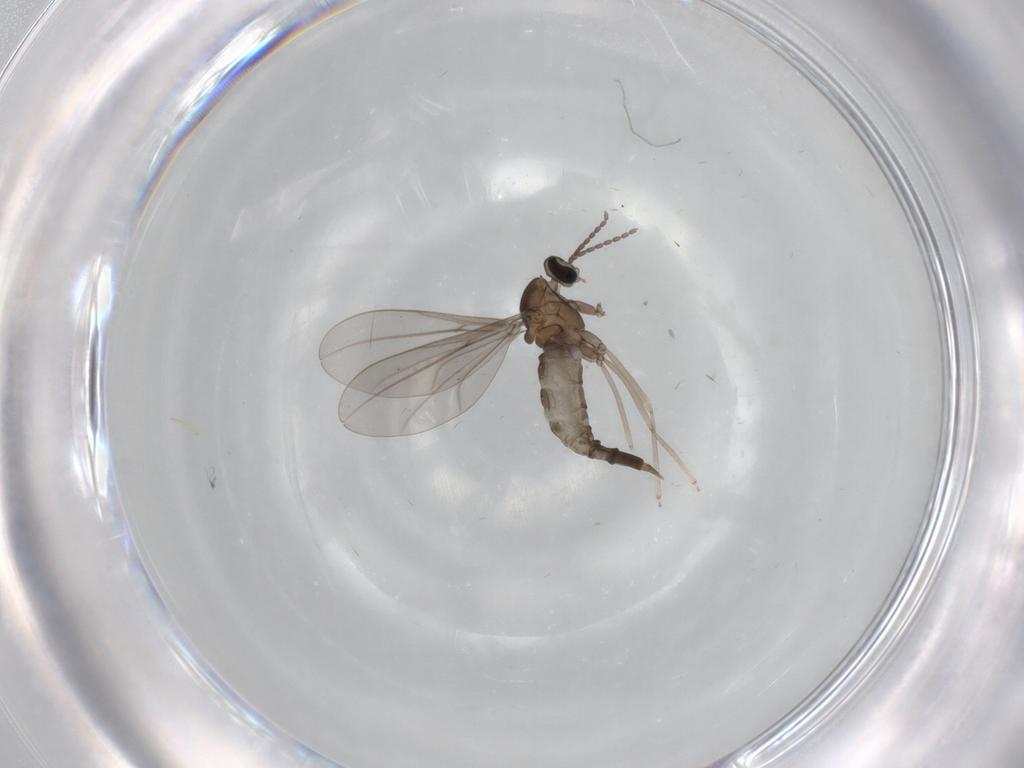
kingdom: Animalia
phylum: Arthropoda
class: Insecta
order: Diptera
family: Cecidomyiidae
